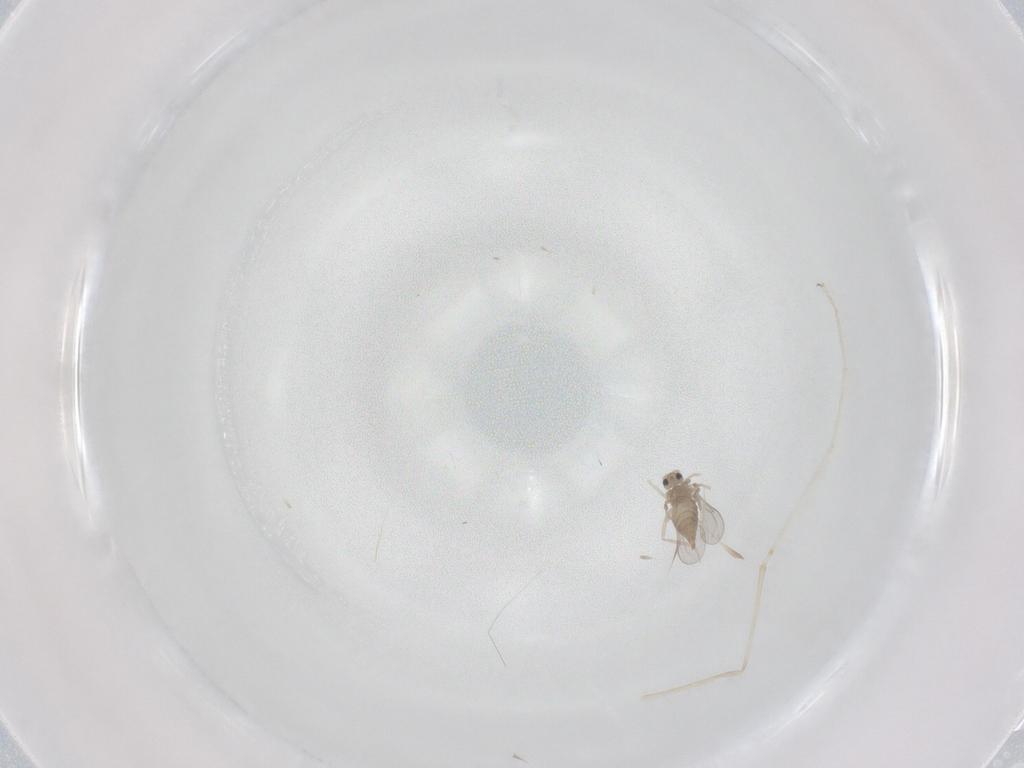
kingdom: Animalia
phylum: Arthropoda
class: Insecta
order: Diptera
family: Cecidomyiidae
